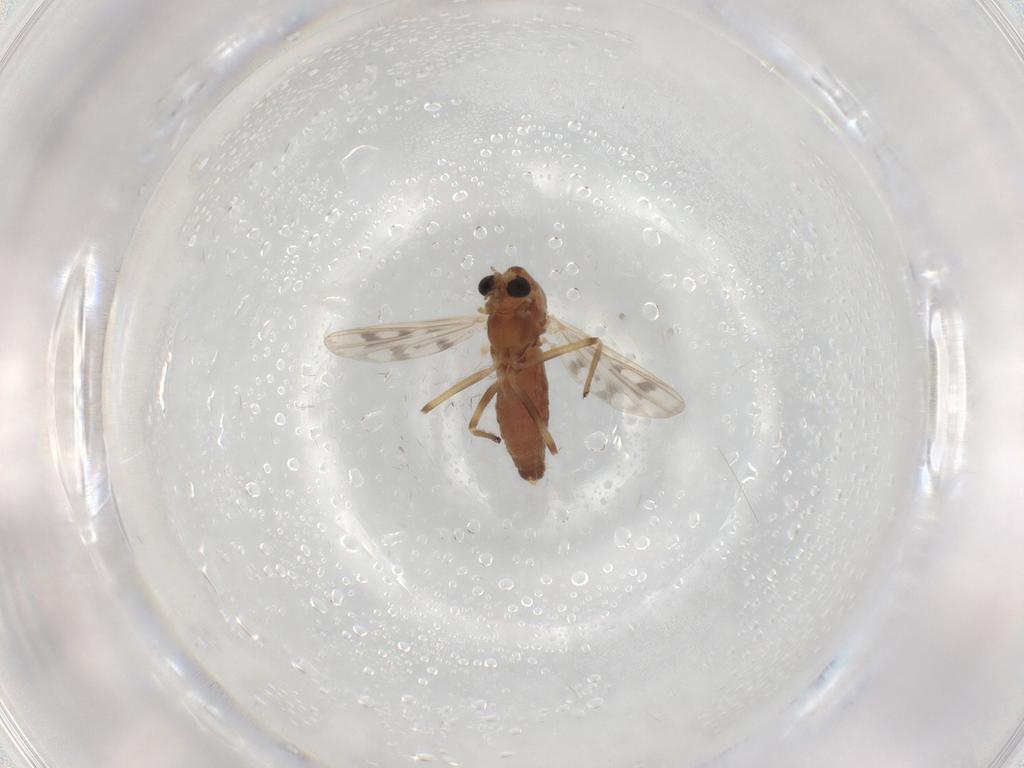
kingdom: Animalia
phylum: Arthropoda
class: Insecta
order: Diptera
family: Chironomidae
